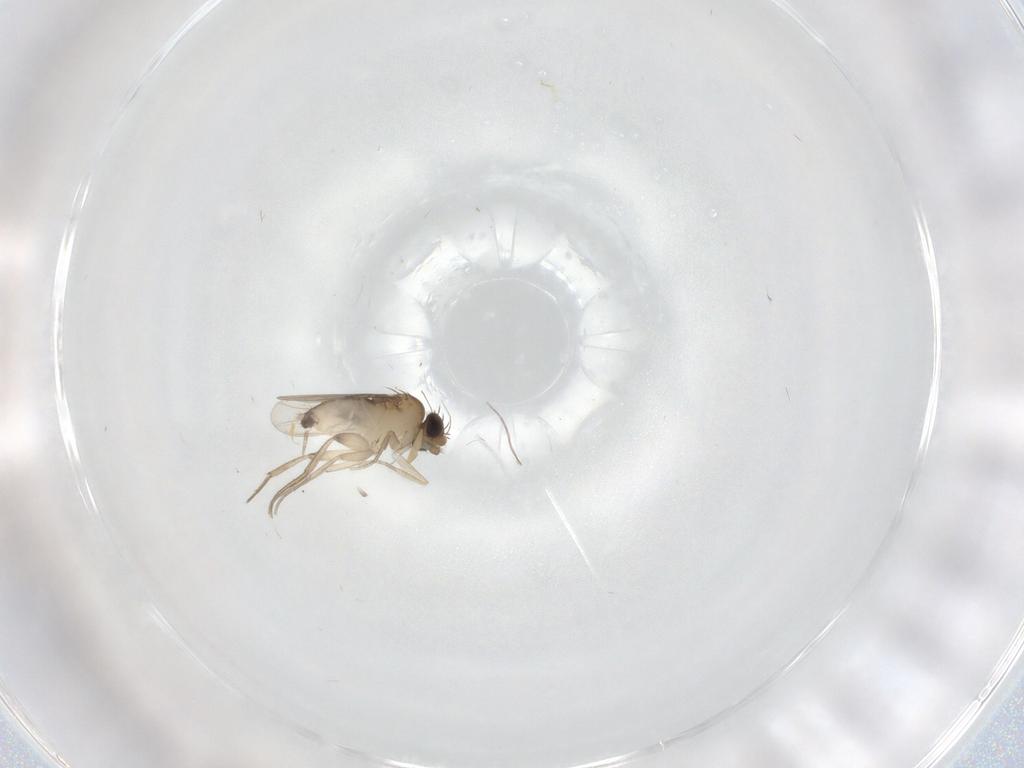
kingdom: Animalia
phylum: Arthropoda
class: Insecta
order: Diptera
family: Phoridae
